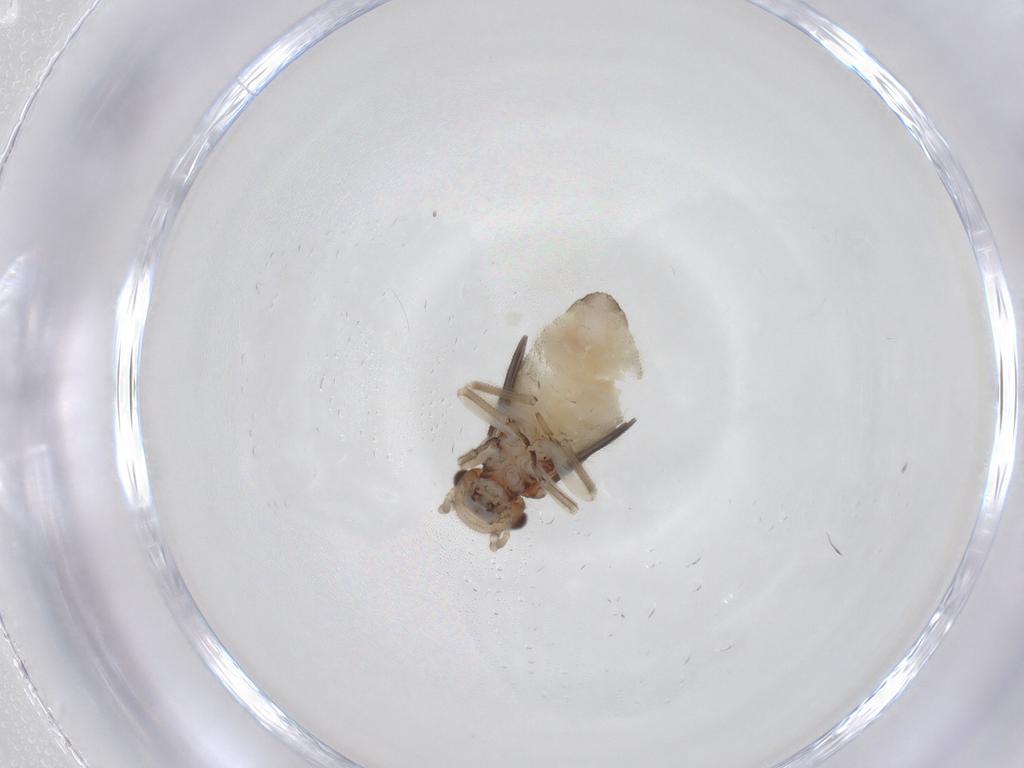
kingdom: Animalia
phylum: Arthropoda
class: Insecta
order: Psocodea
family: Caeciliusidae
